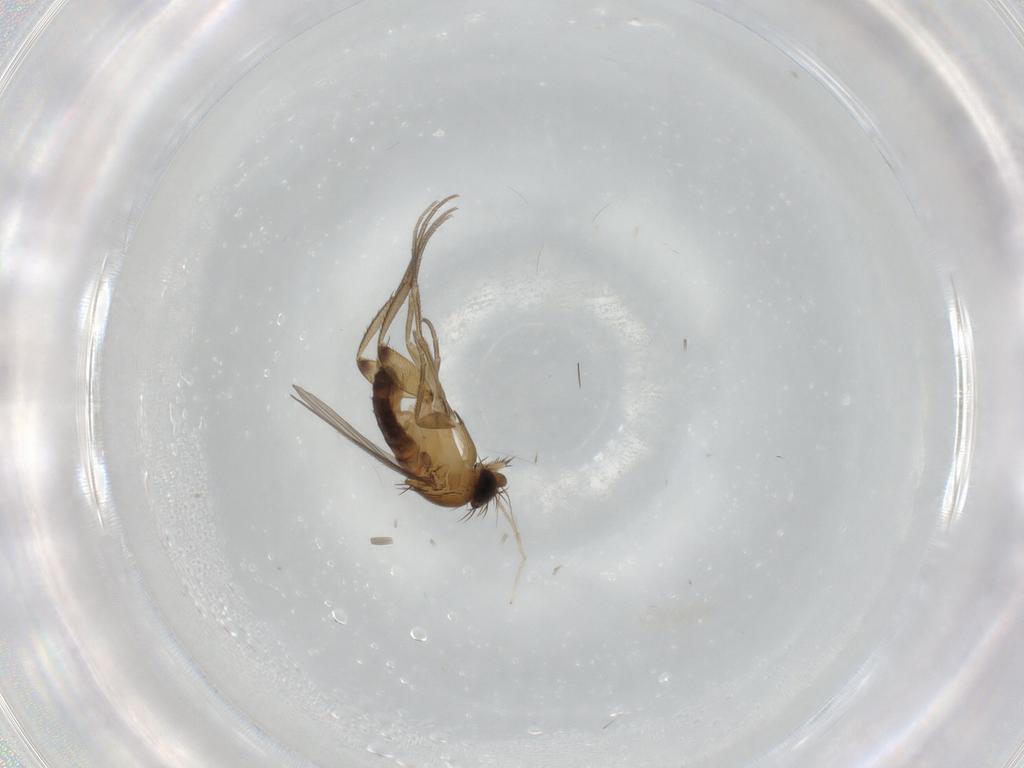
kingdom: Animalia
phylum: Arthropoda
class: Insecta
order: Diptera
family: Phoridae
